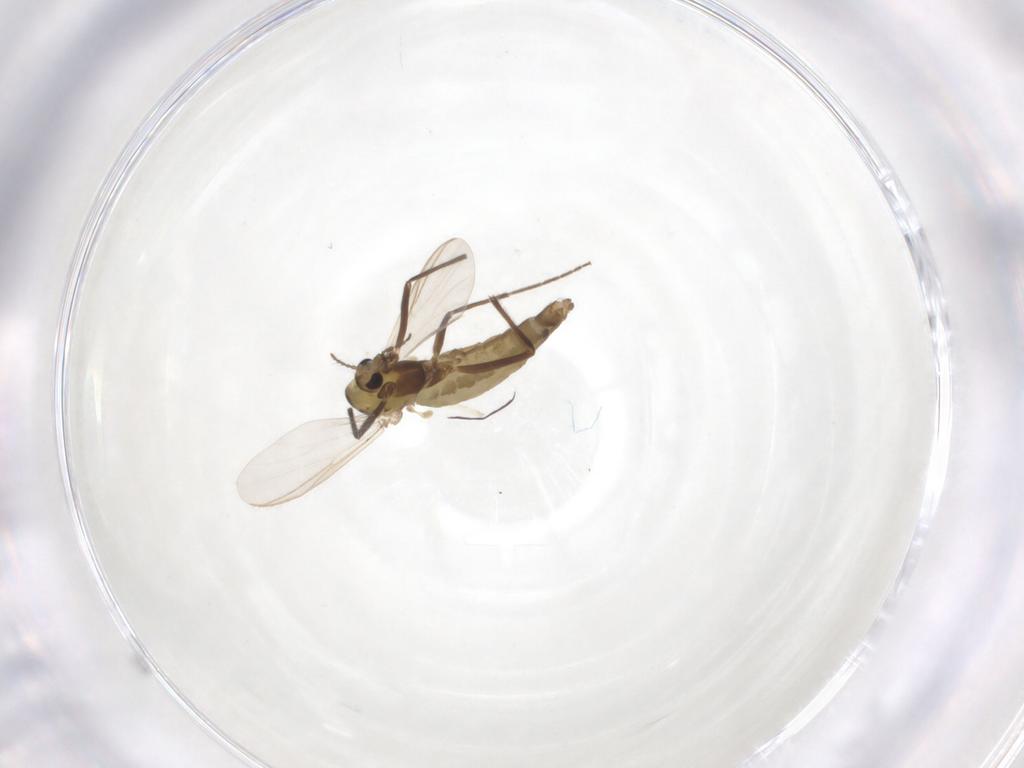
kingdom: Animalia
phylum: Arthropoda
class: Insecta
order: Diptera
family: Chironomidae
